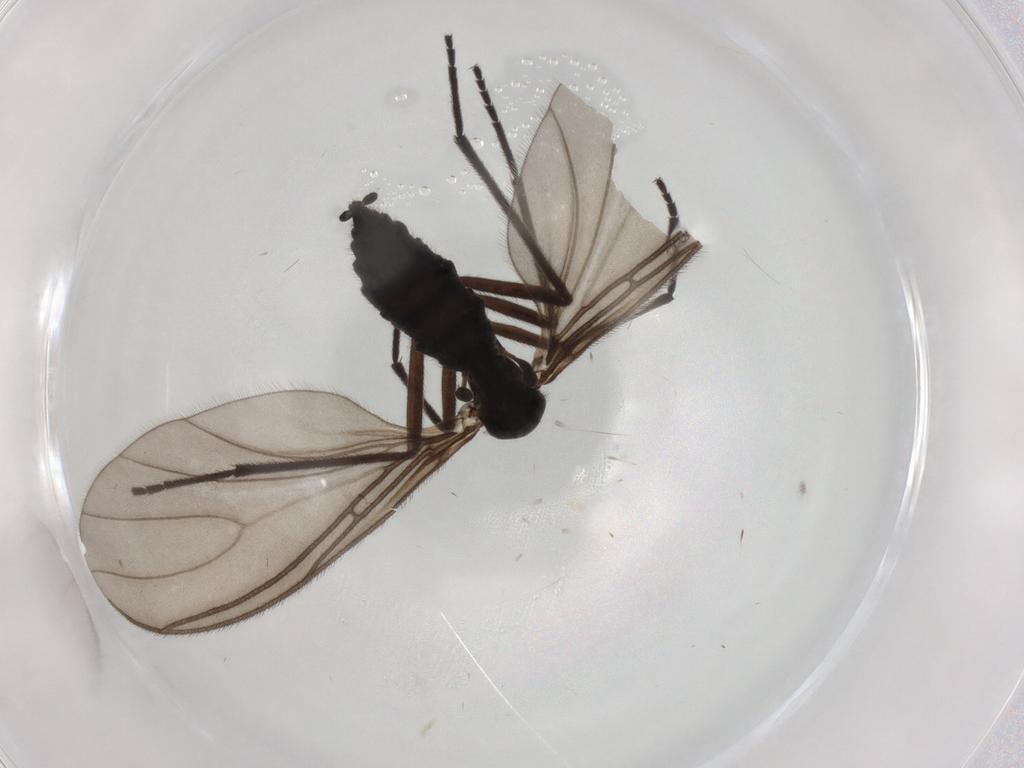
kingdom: Animalia
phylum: Arthropoda
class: Insecta
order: Diptera
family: Sciaridae
